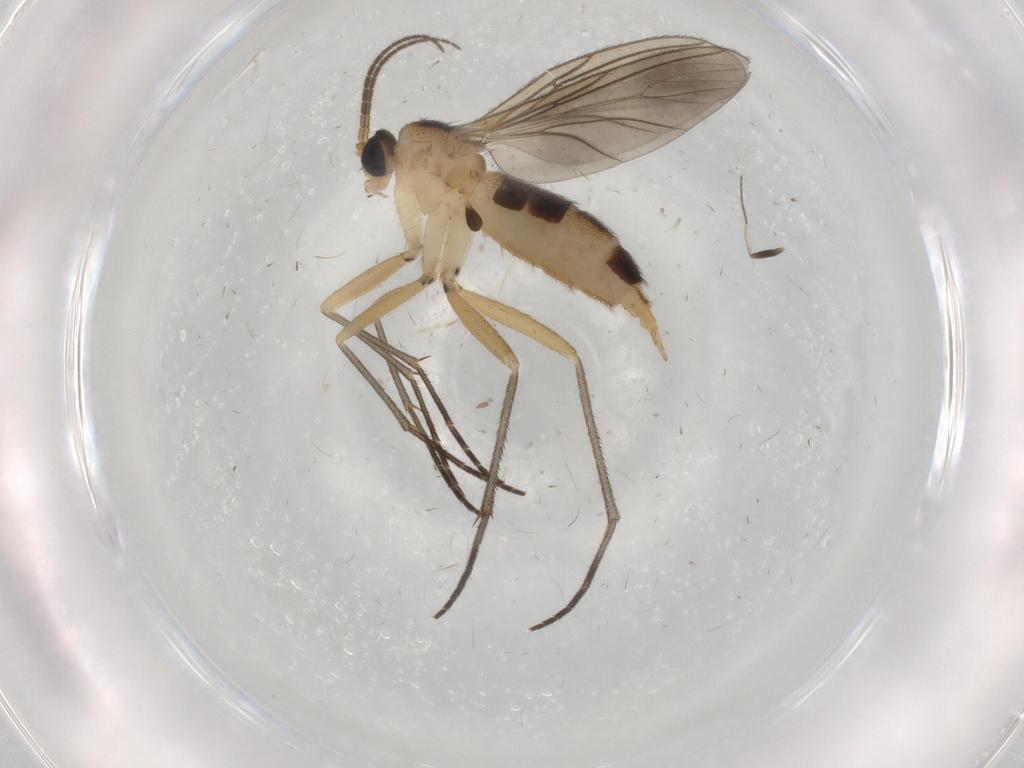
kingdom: Animalia
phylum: Arthropoda
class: Insecta
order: Diptera
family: Sciaridae
